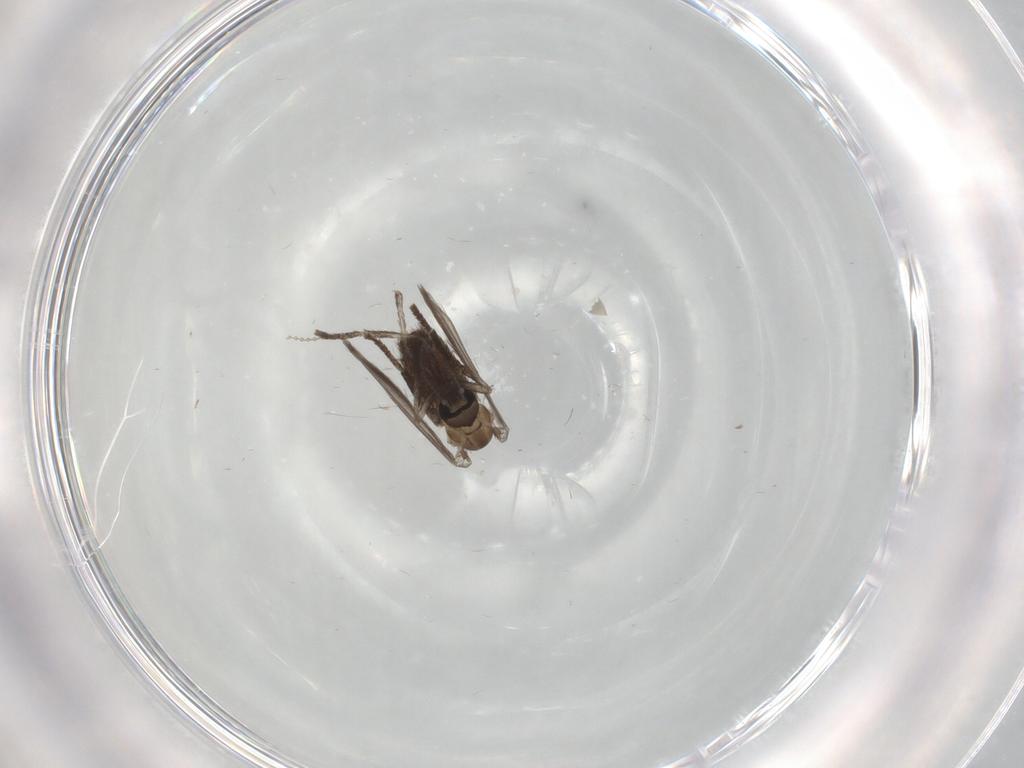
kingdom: Animalia
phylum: Arthropoda
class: Insecta
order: Diptera
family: Psychodidae
